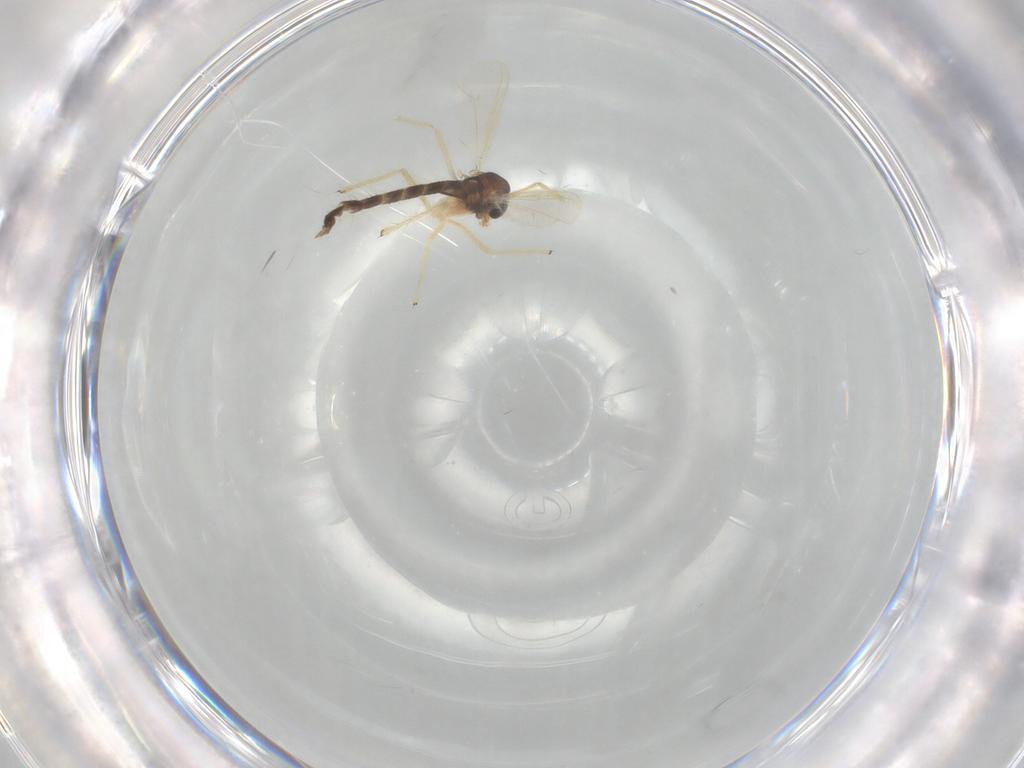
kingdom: Animalia
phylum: Arthropoda
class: Insecta
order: Diptera
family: Chironomidae
